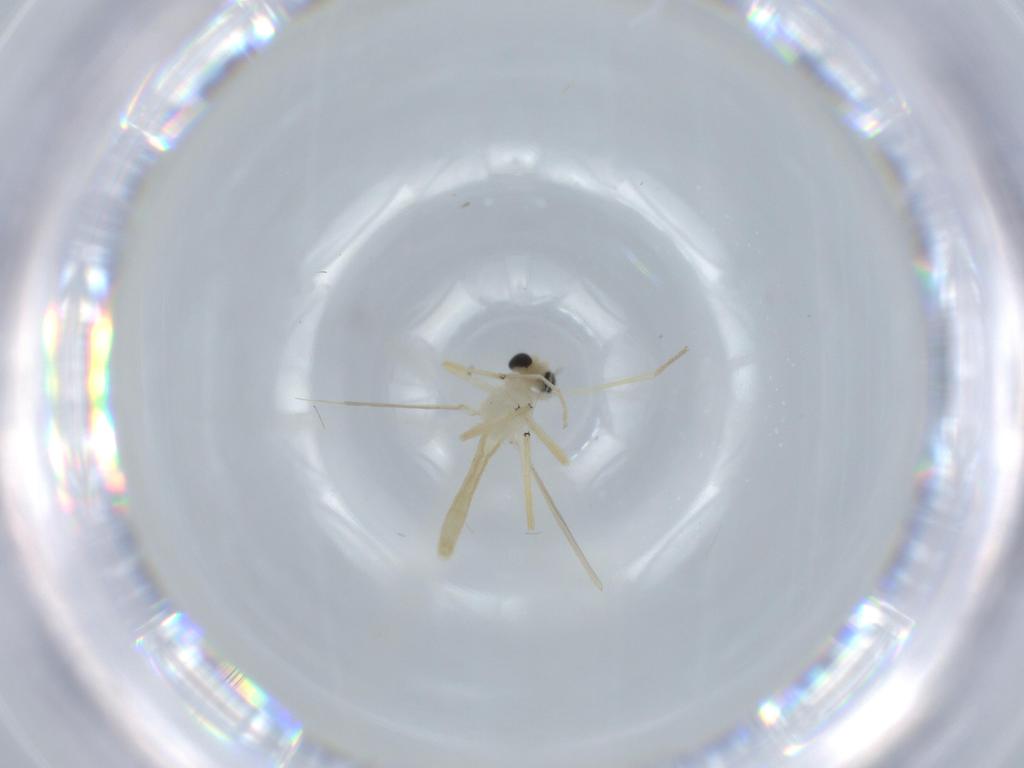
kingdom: Animalia
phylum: Arthropoda
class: Insecta
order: Diptera
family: Chironomidae
